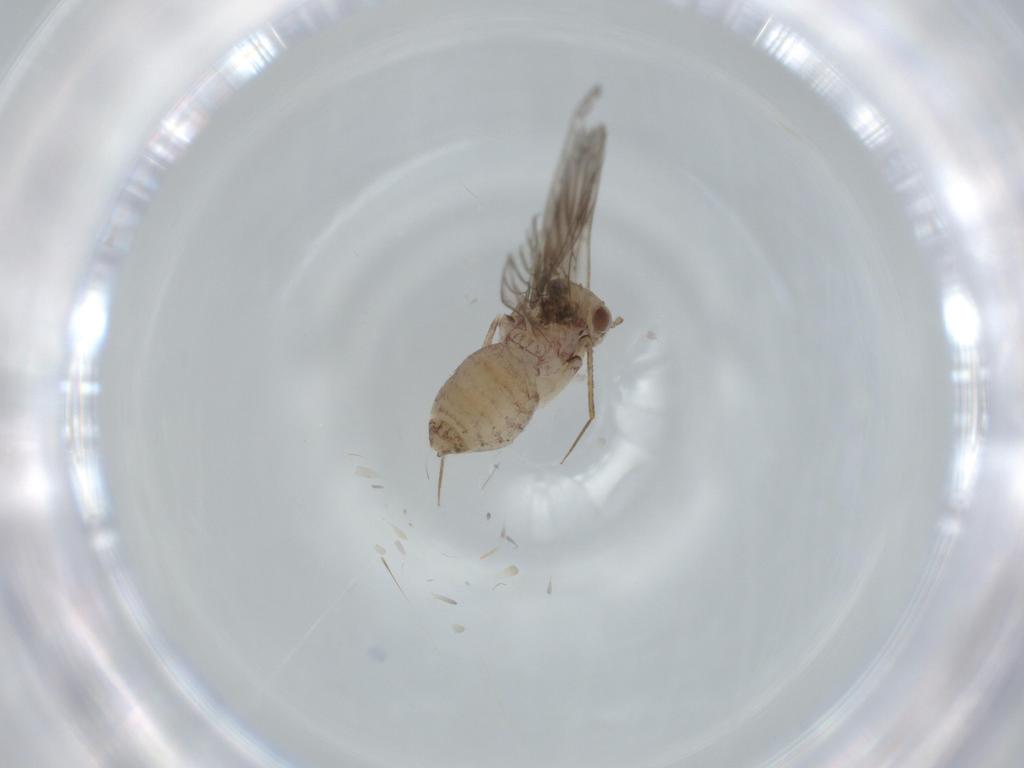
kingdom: Animalia
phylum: Arthropoda
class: Insecta
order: Psocodea
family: Lepidopsocidae
